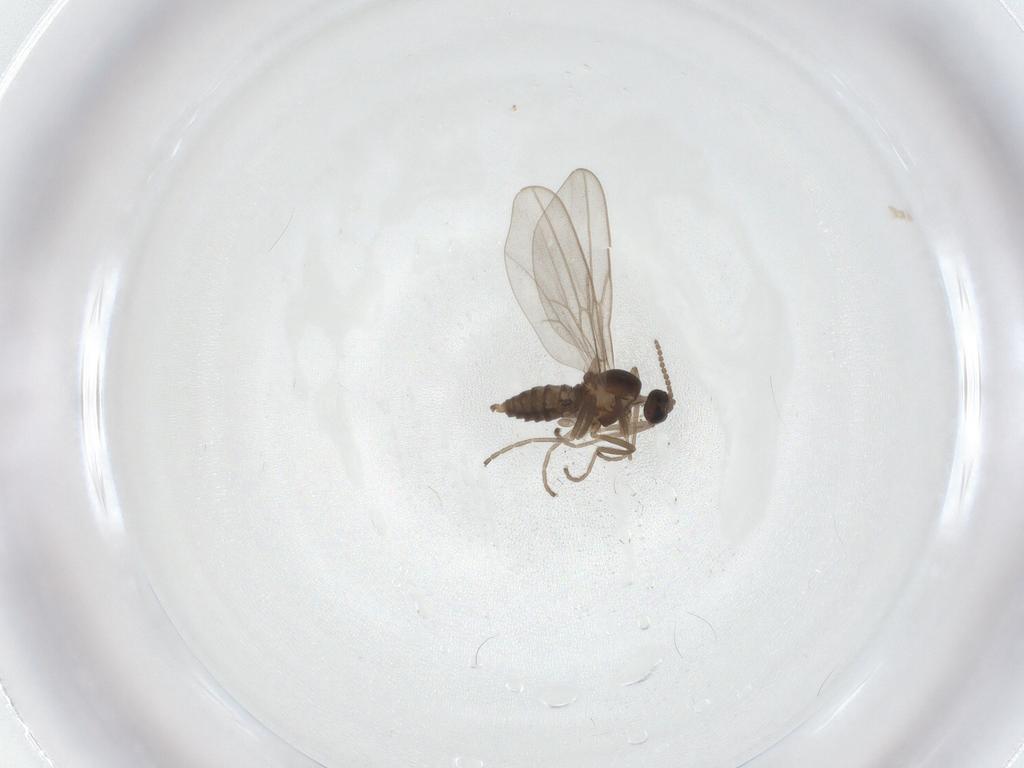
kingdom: Animalia
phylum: Arthropoda
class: Insecta
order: Diptera
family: Cecidomyiidae
